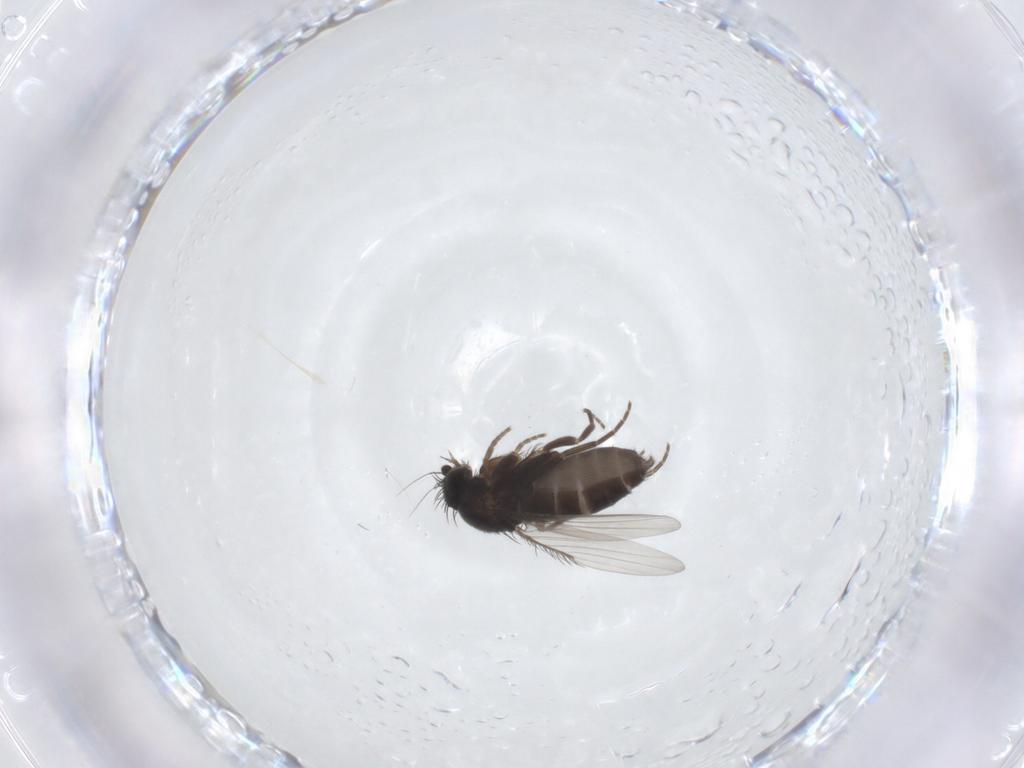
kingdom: Animalia
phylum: Arthropoda
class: Insecta
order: Diptera
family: Phoridae
